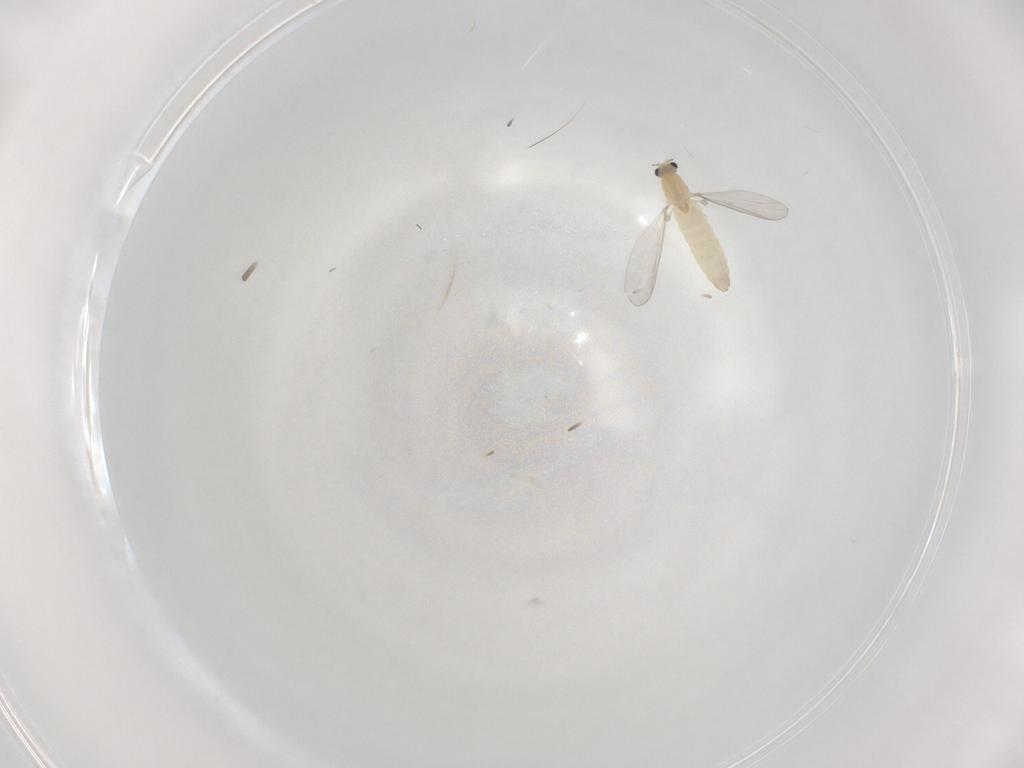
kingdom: Animalia
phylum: Arthropoda
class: Insecta
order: Diptera
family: Chironomidae
